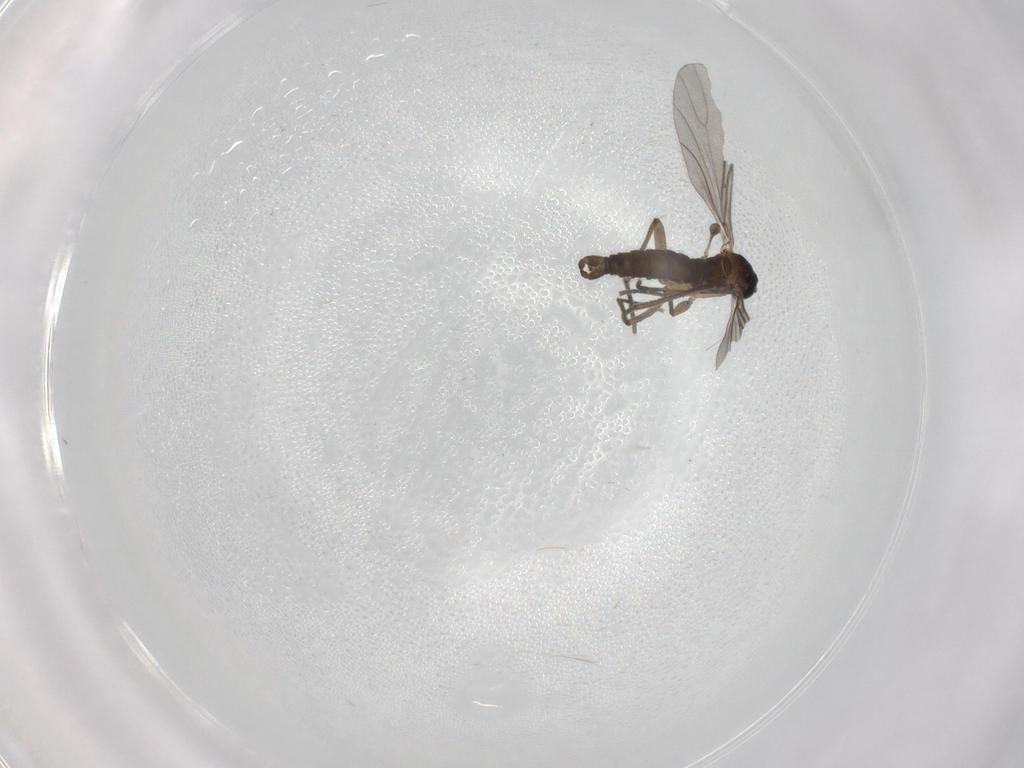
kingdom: Animalia
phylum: Arthropoda
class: Insecta
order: Diptera
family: Sciaridae
